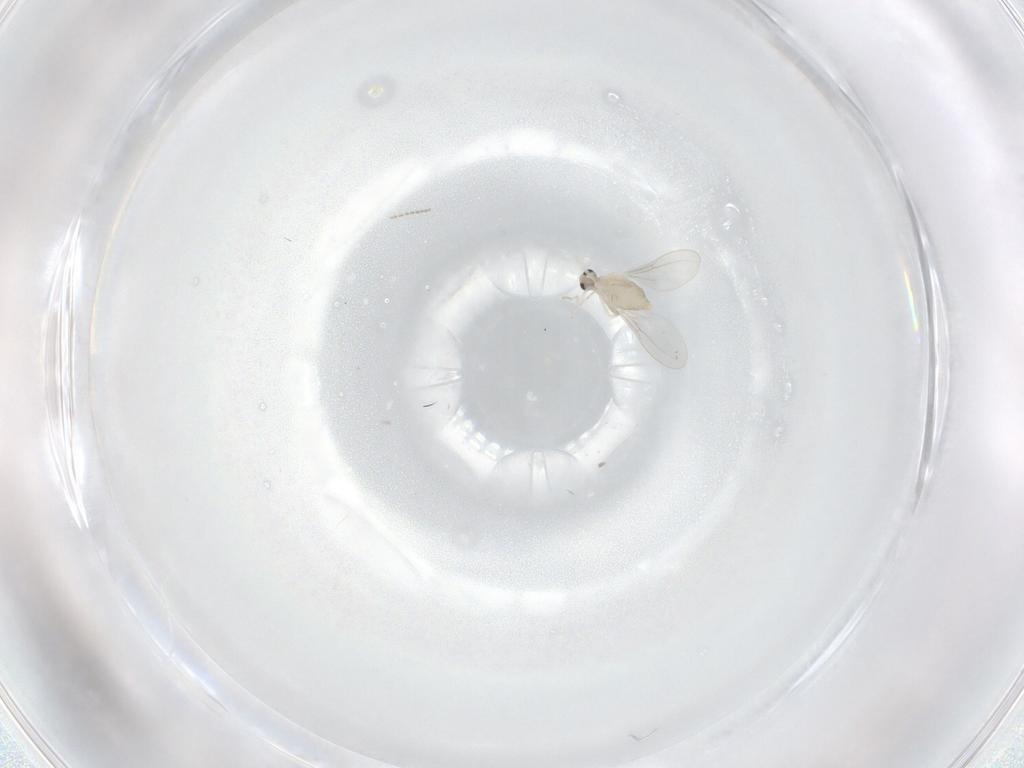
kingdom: Animalia
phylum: Arthropoda
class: Insecta
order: Diptera
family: Cecidomyiidae
